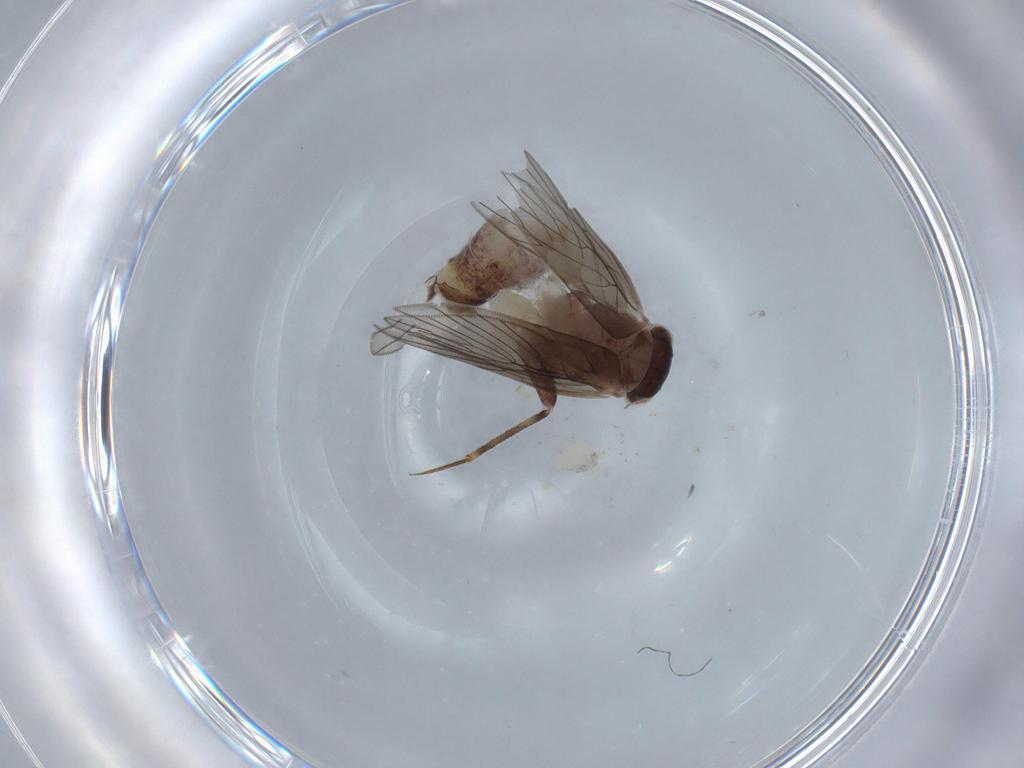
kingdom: Animalia
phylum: Arthropoda
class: Insecta
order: Psocodea
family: Lepidopsocidae
